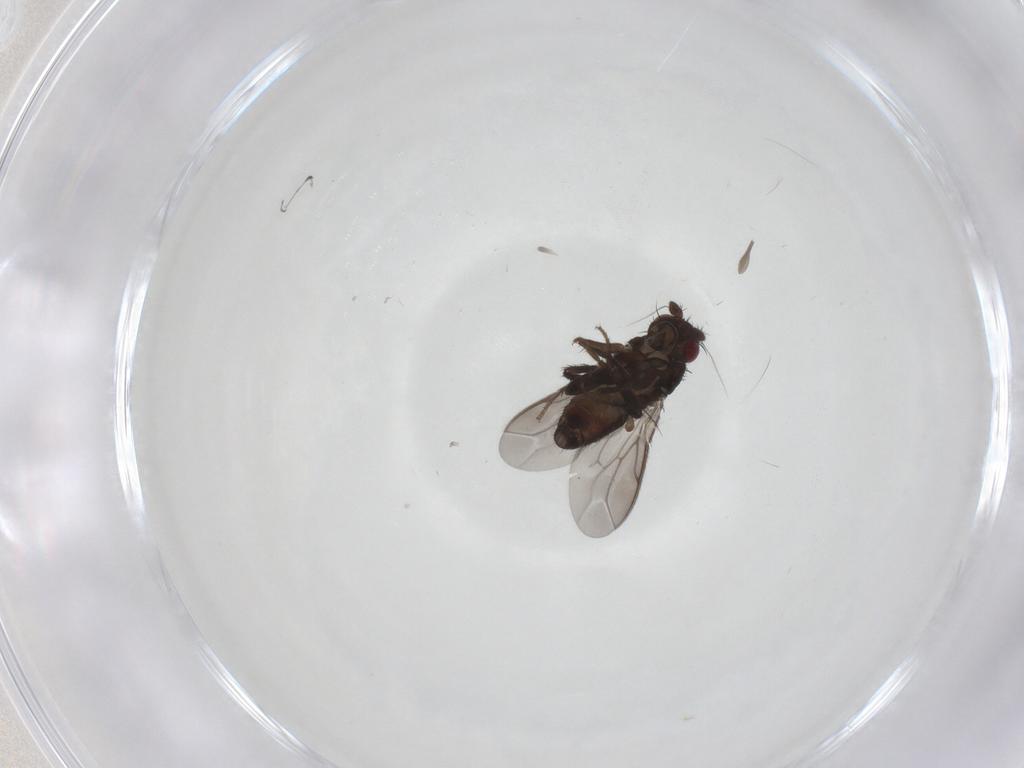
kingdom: Animalia
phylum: Arthropoda
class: Insecta
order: Diptera
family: Sphaeroceridae
